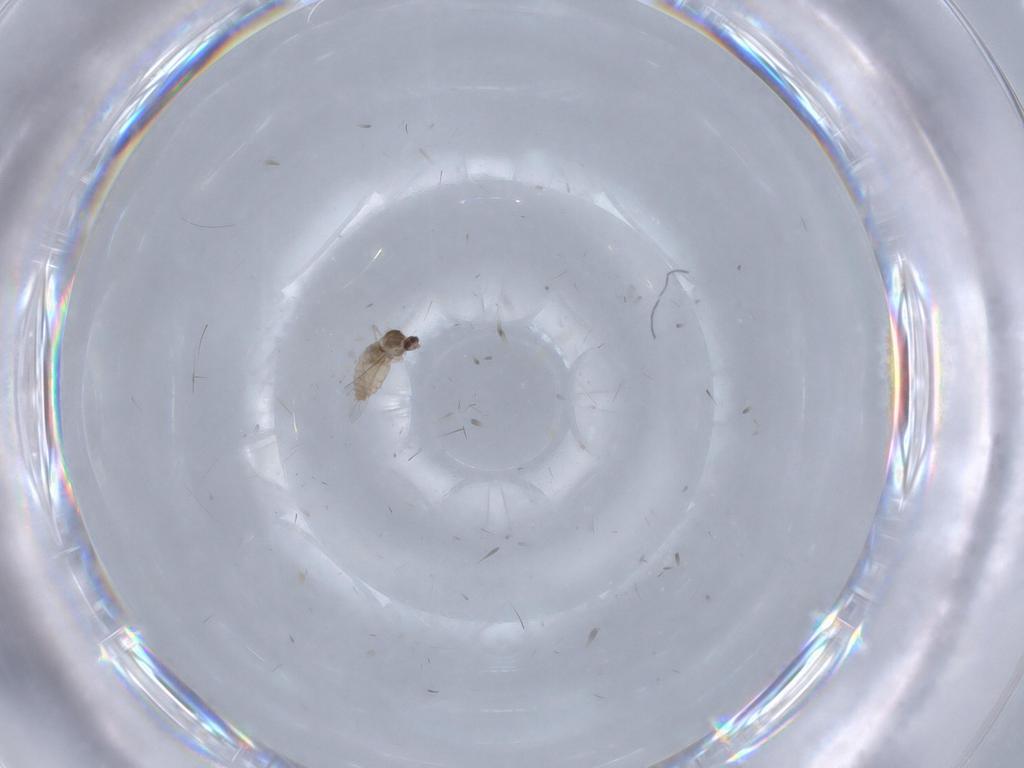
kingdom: Animalia
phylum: Arthropoda
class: Insecta
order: Diptera
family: Cecidomyiidae
